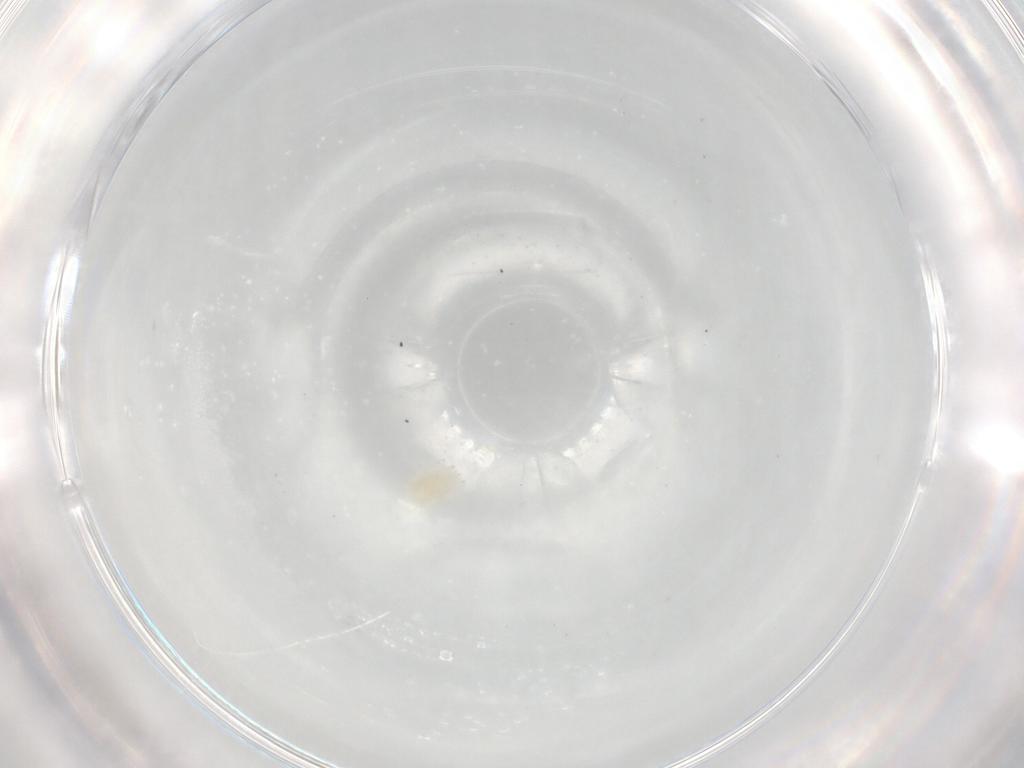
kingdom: Animalia
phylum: Arthropoda
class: Arachnida
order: Trombidiformes
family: Eupodidae
